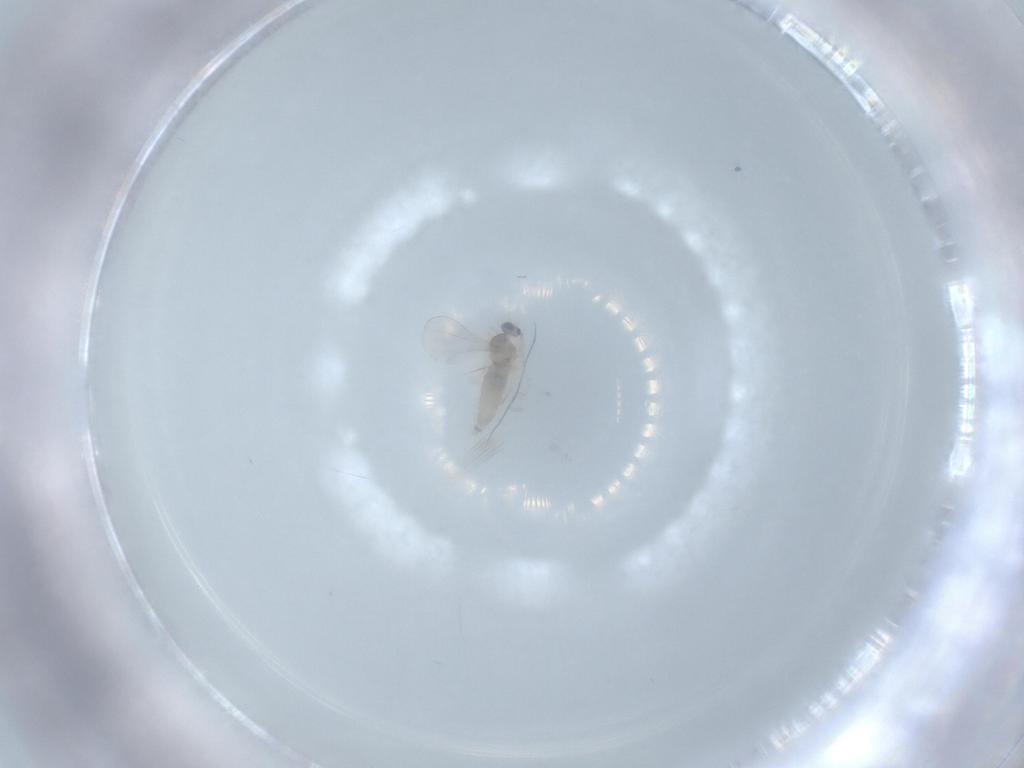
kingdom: Animalia
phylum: Arthropoda
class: Insecta
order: Diptera
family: Cecidomyiidae
